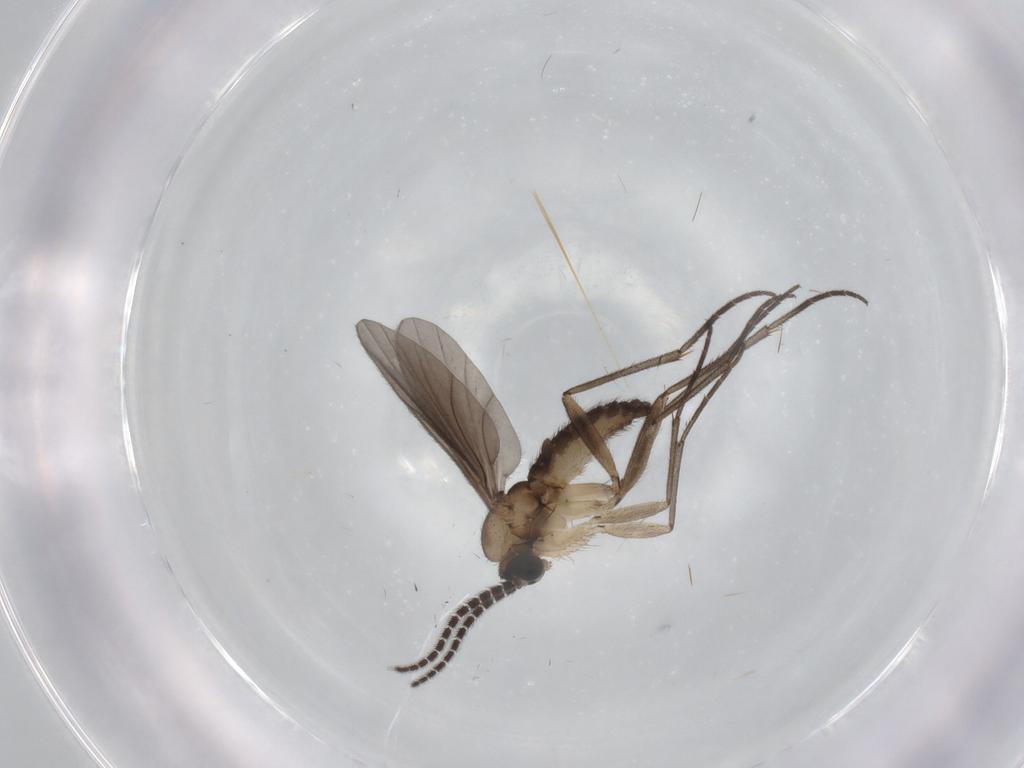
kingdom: Animalia
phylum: Arthropoda
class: Insecta
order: Diptera
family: Sciaridae
